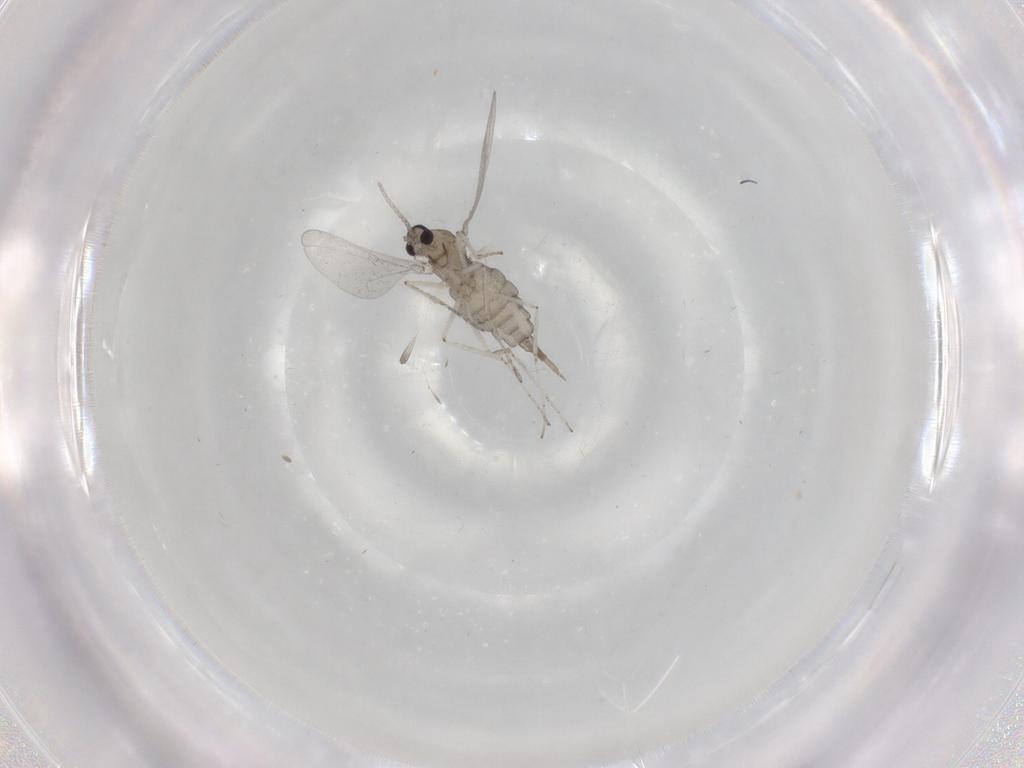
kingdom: Animalia
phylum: Arthropoda
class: Insecta
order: Diptera
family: Cecidomyiidae
